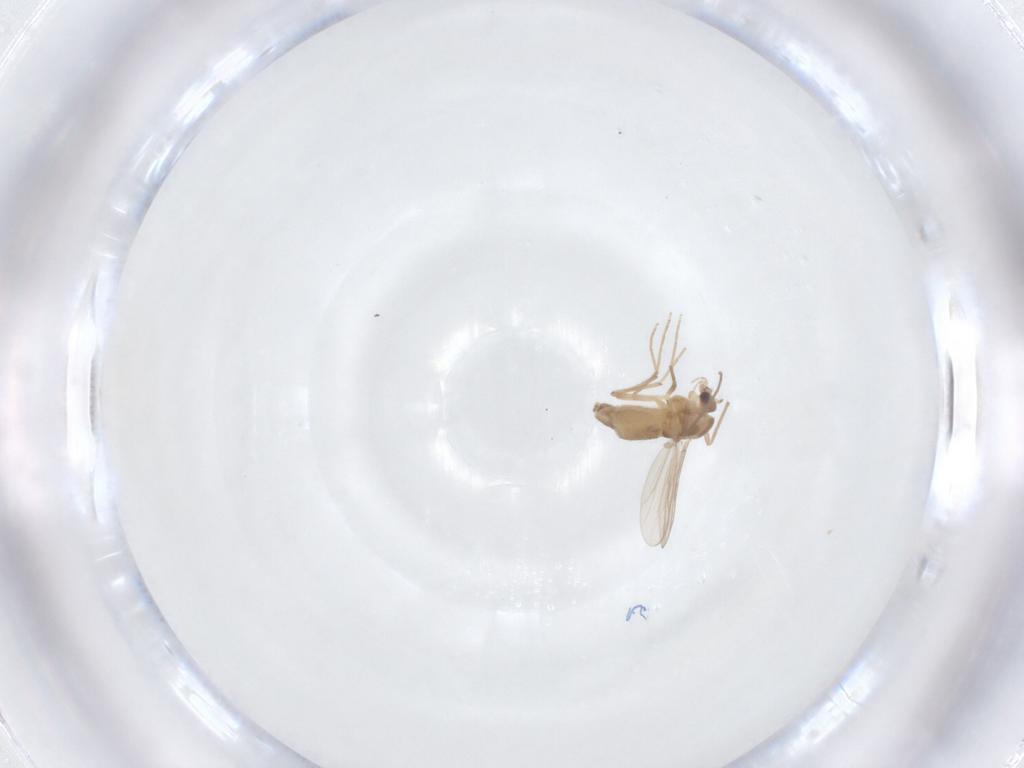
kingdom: Animalia
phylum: Arthropoda
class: Insecta
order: Diptera
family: Chironomidae
